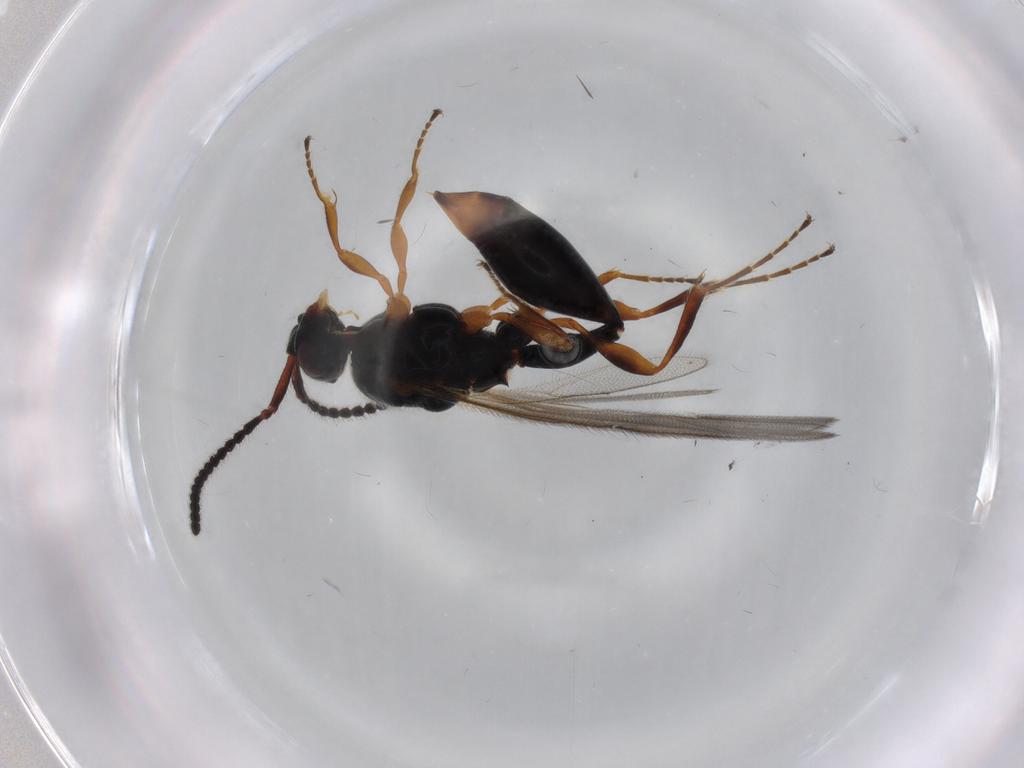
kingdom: Animalia
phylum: Arthropoda
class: Insecta
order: Hymenoptera
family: Diapriidae
